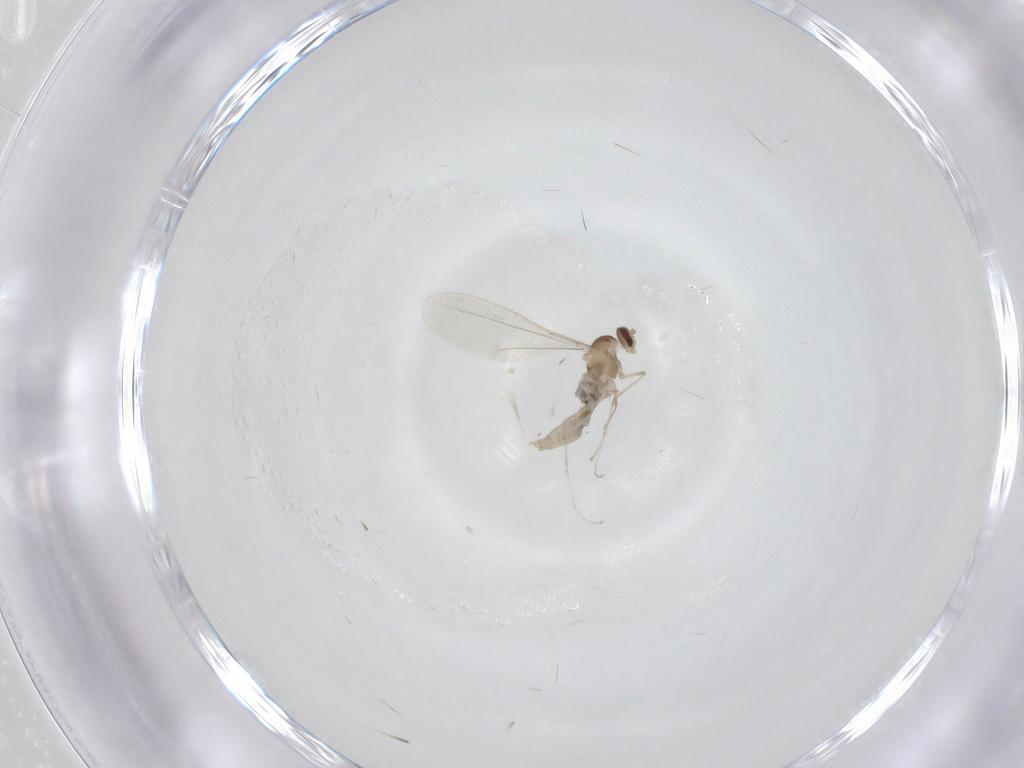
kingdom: Animalia
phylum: Arthropoda
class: Insecta
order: Diptera
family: Cecidomyiidae
